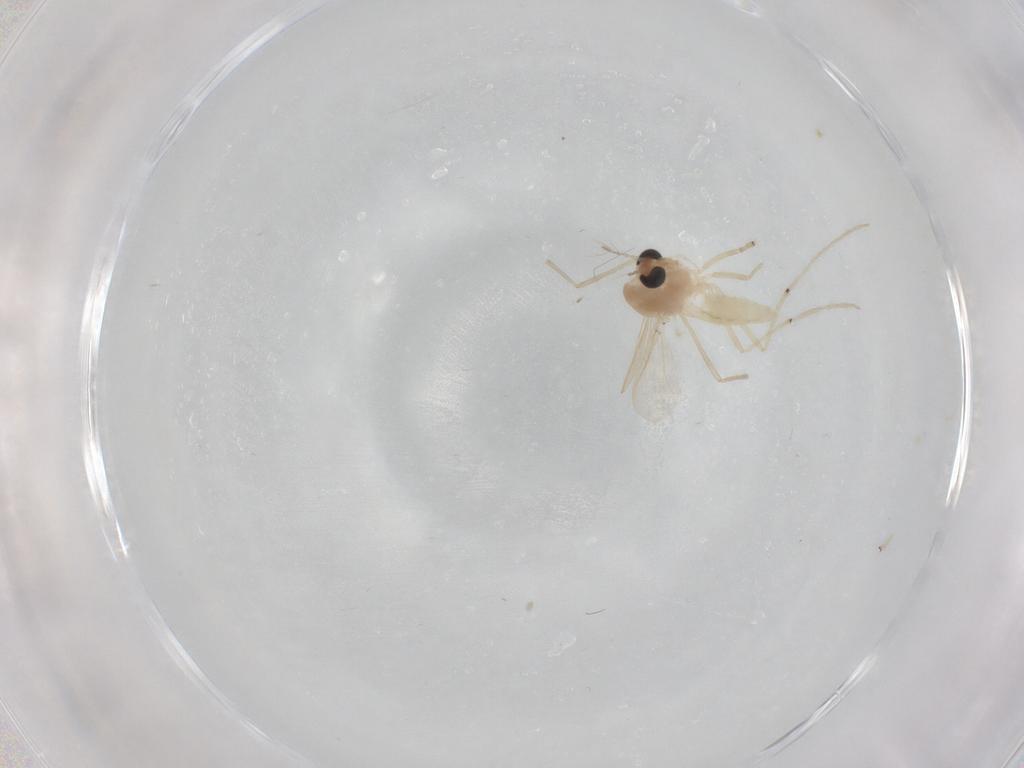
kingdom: Animalia
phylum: Arthropoda
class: Insecta
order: Diptera
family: Chironomidae
